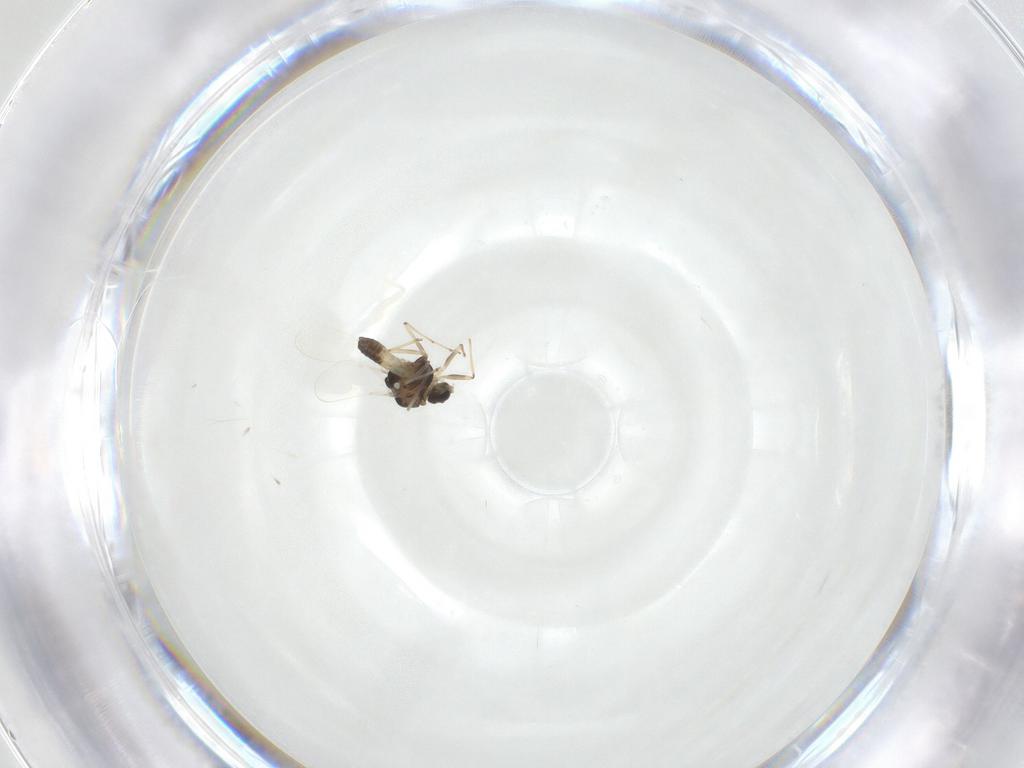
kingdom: Animalia
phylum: Arthropoda
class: Insecta
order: Diptera
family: Chironomidae
